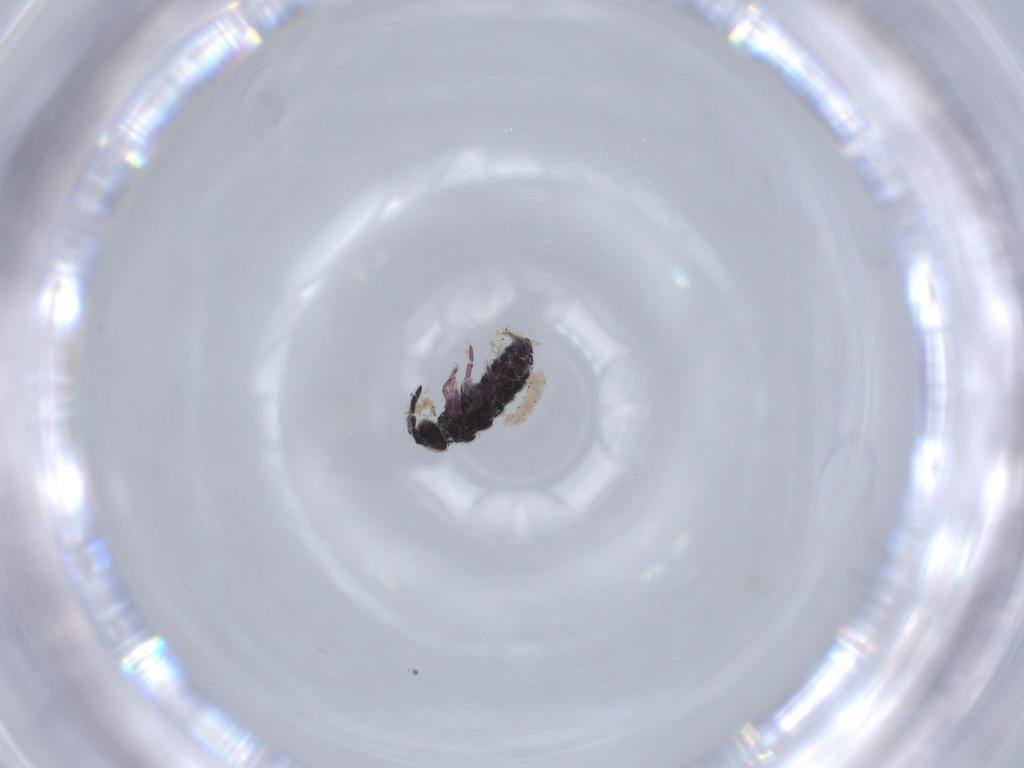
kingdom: Animalia
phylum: Arthropoda
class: Collembola
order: Entomobryomorpha
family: Isotomidae
